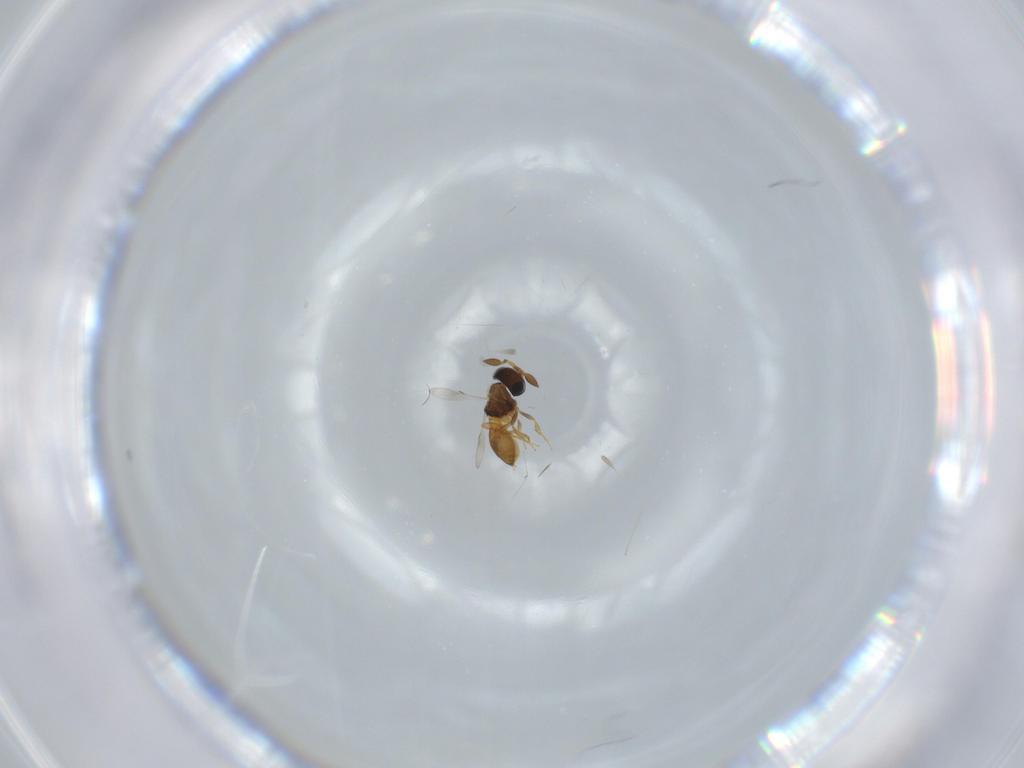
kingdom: Animalia
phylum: Arthropoda
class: Insecta
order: Hymenoptera
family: Scelionidae
